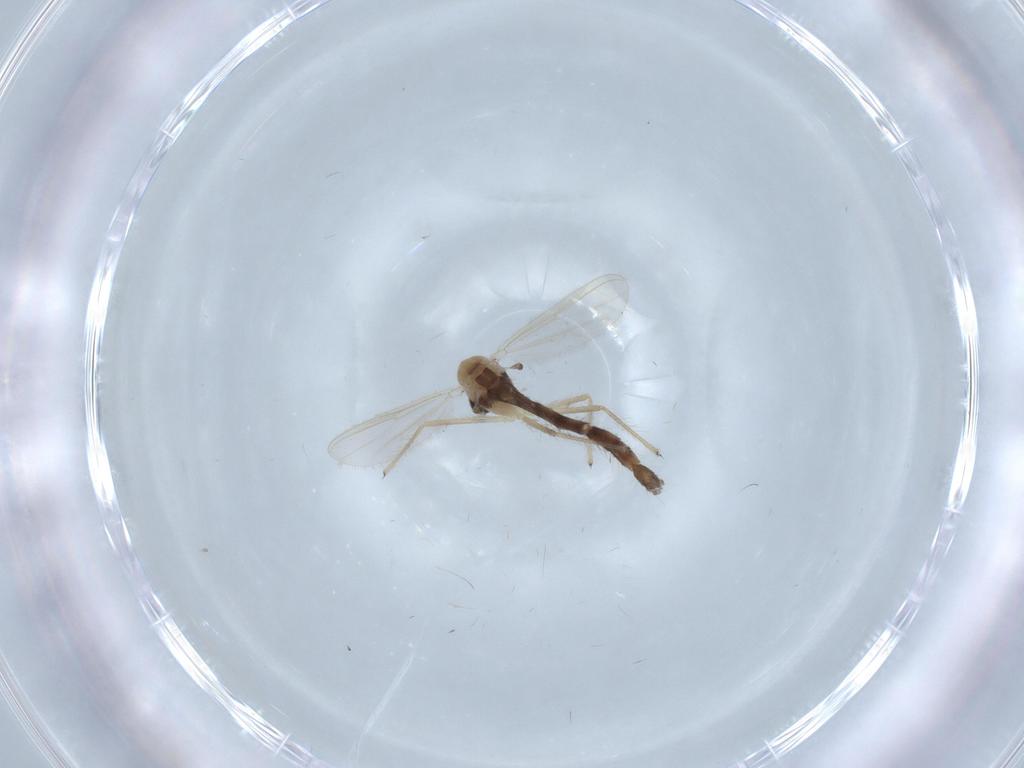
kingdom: Animalia
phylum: Arthropoda
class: Insecta
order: Diptera
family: Chironomidae
